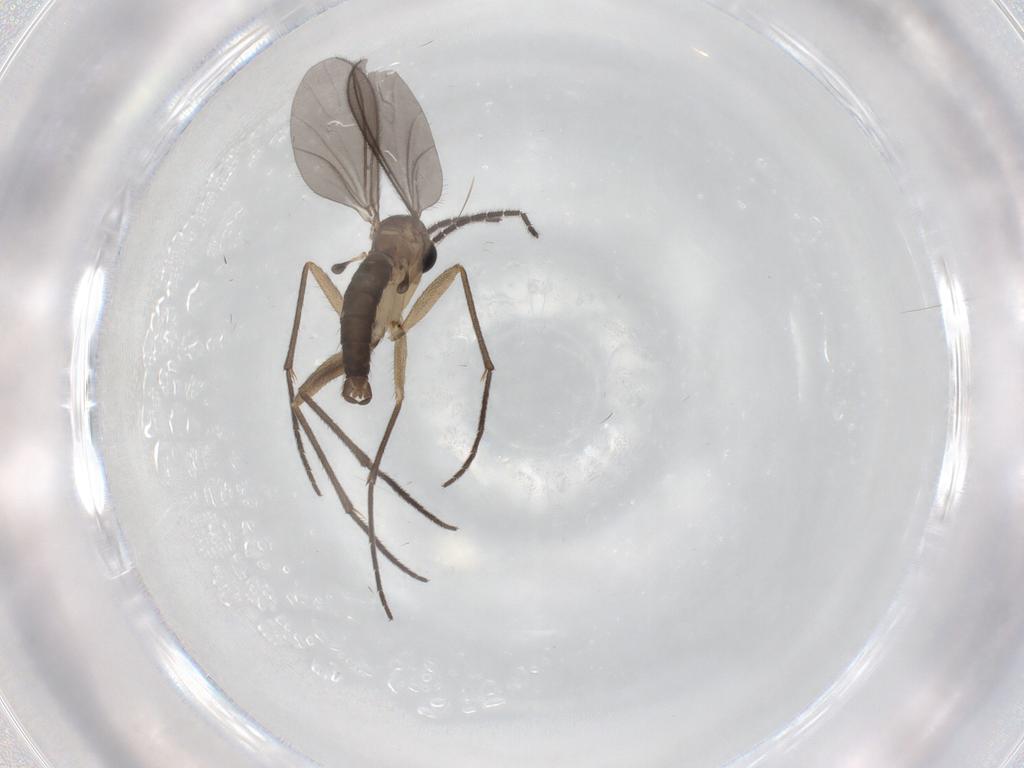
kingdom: Animalia
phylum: Arthropoda
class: Insecta
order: Diptera
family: Sciaridae
